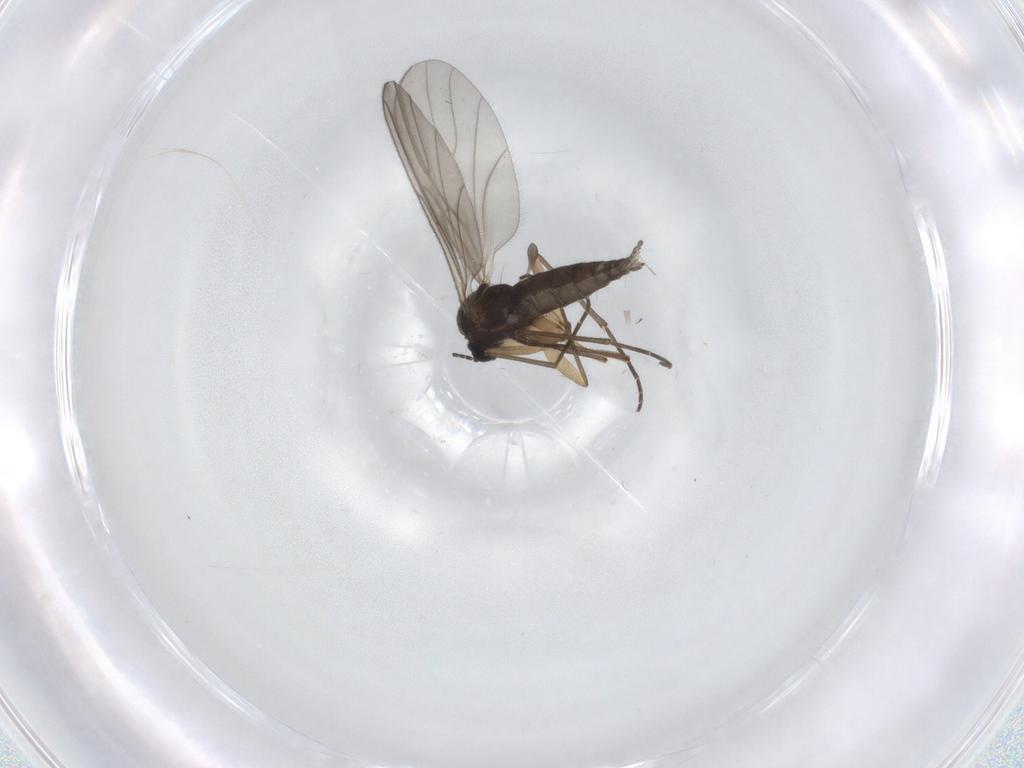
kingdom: Animalia
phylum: Arthropoda
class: Insecta
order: Diptera
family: Sciaridae
